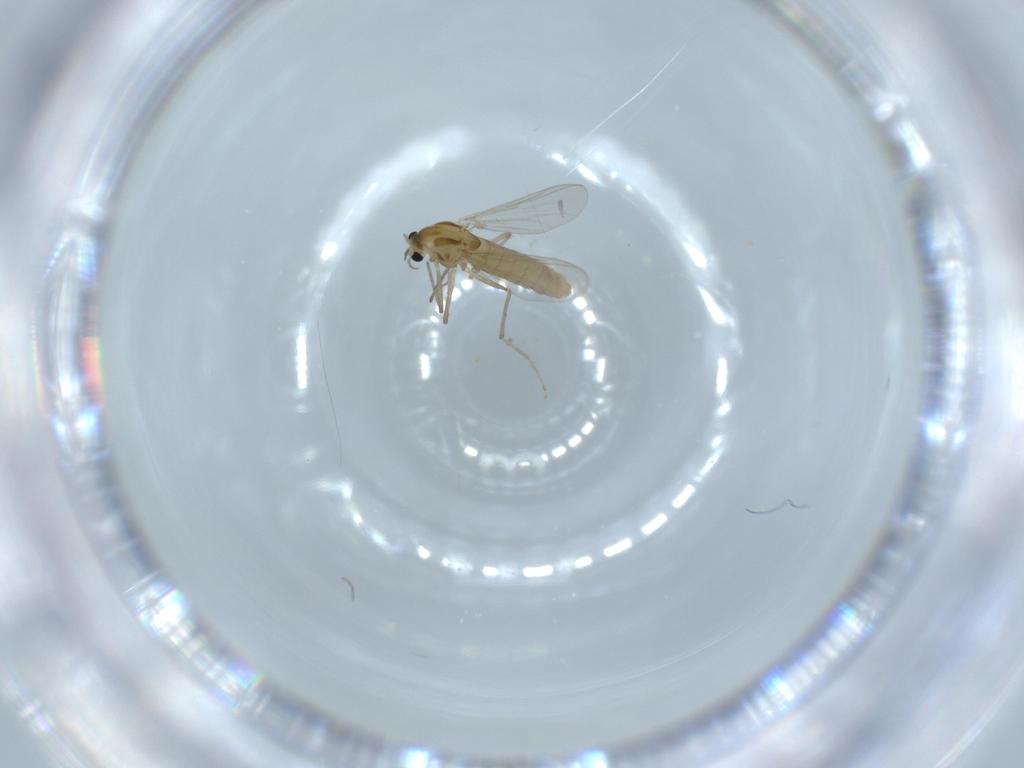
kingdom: Animalia
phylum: Arthropoda
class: Insecta
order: Diptera
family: Chironomidae
